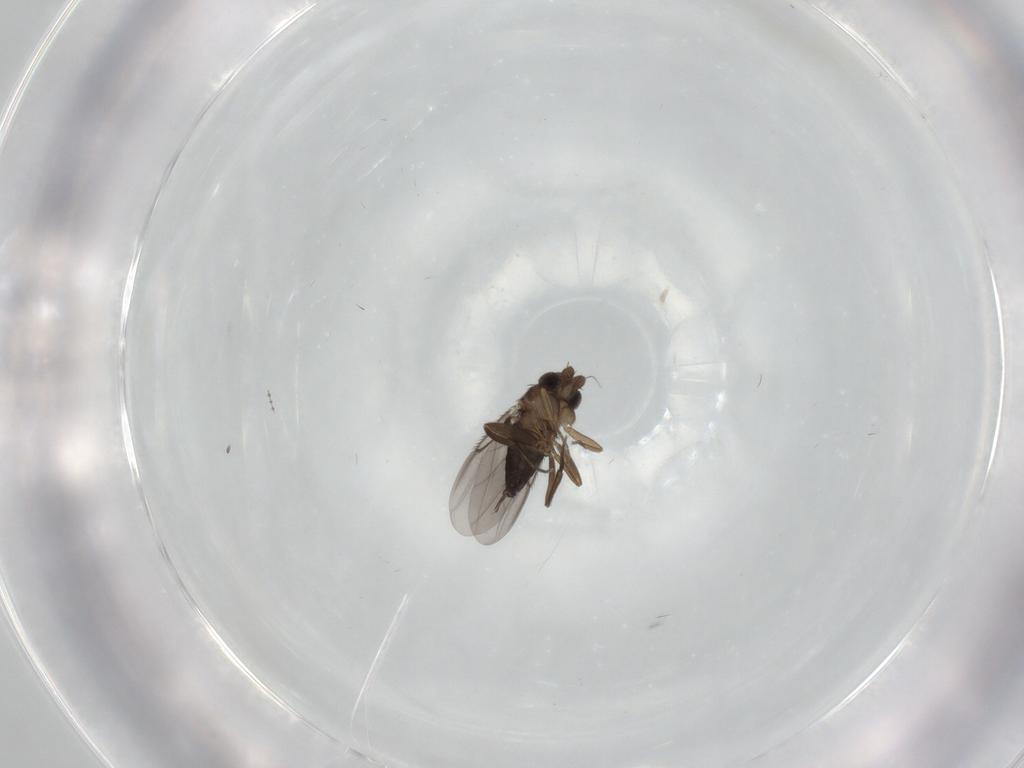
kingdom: Animalia
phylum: Arthropoda
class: Insecta
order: Diptera
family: Phoridae
